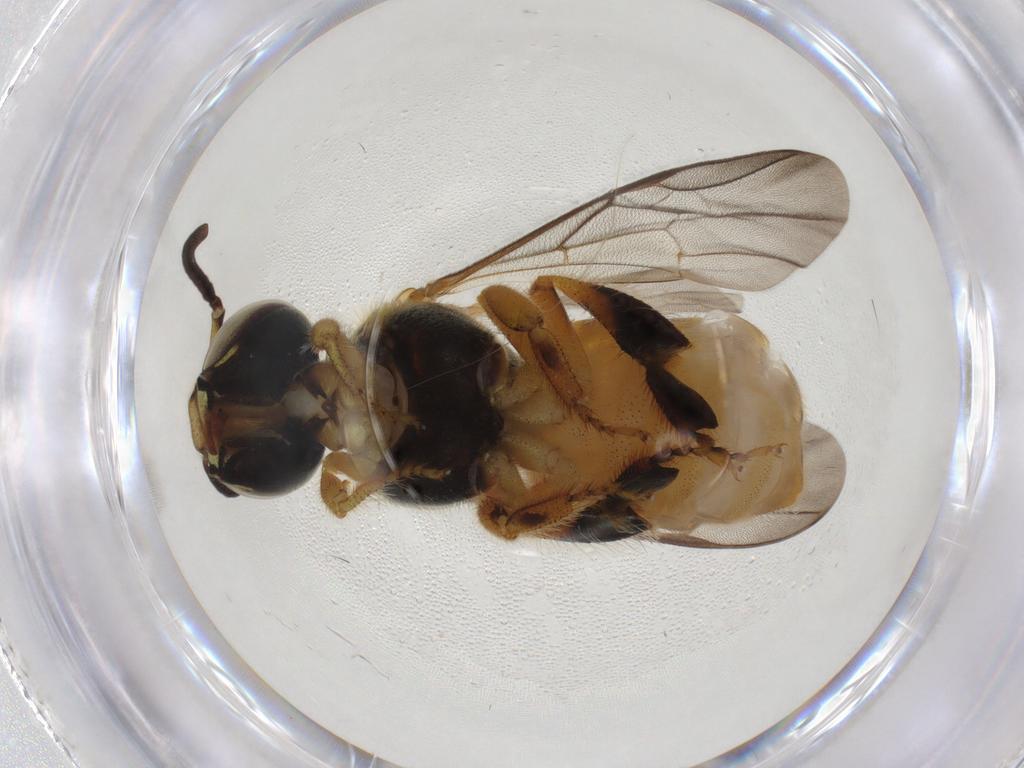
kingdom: Animalia
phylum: Arthropoda
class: Insecta
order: Hymenoptera
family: Apidae
